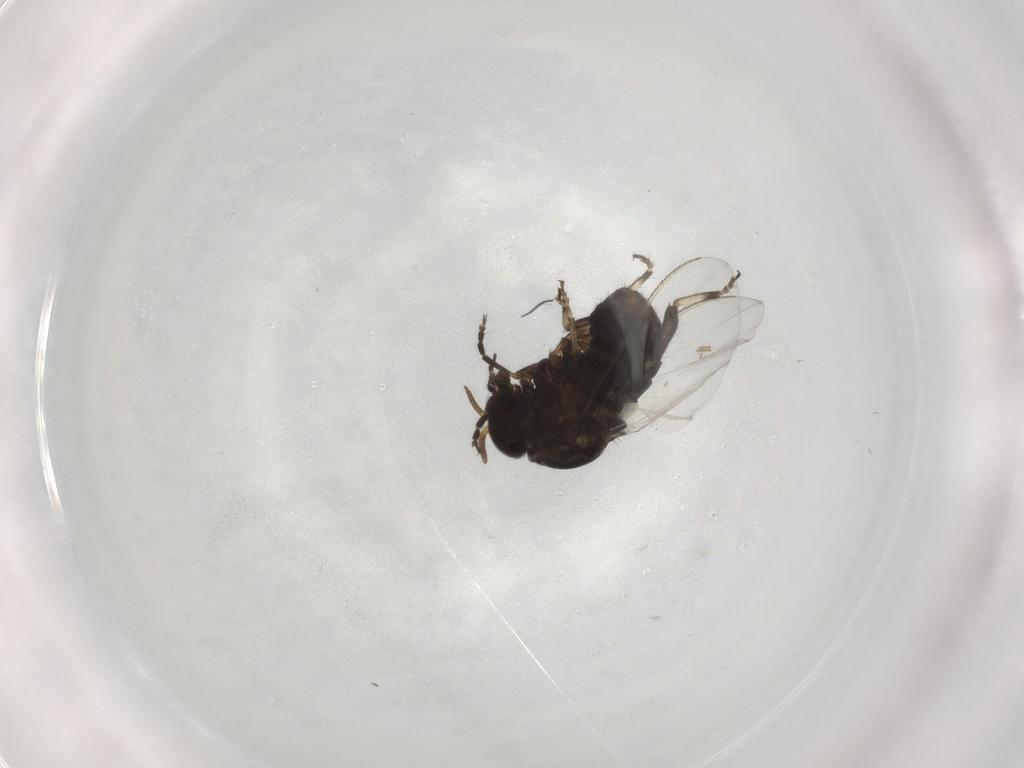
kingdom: Animalia
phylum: Arthropoda
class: Insecta
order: Diptera
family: Simuliidae
